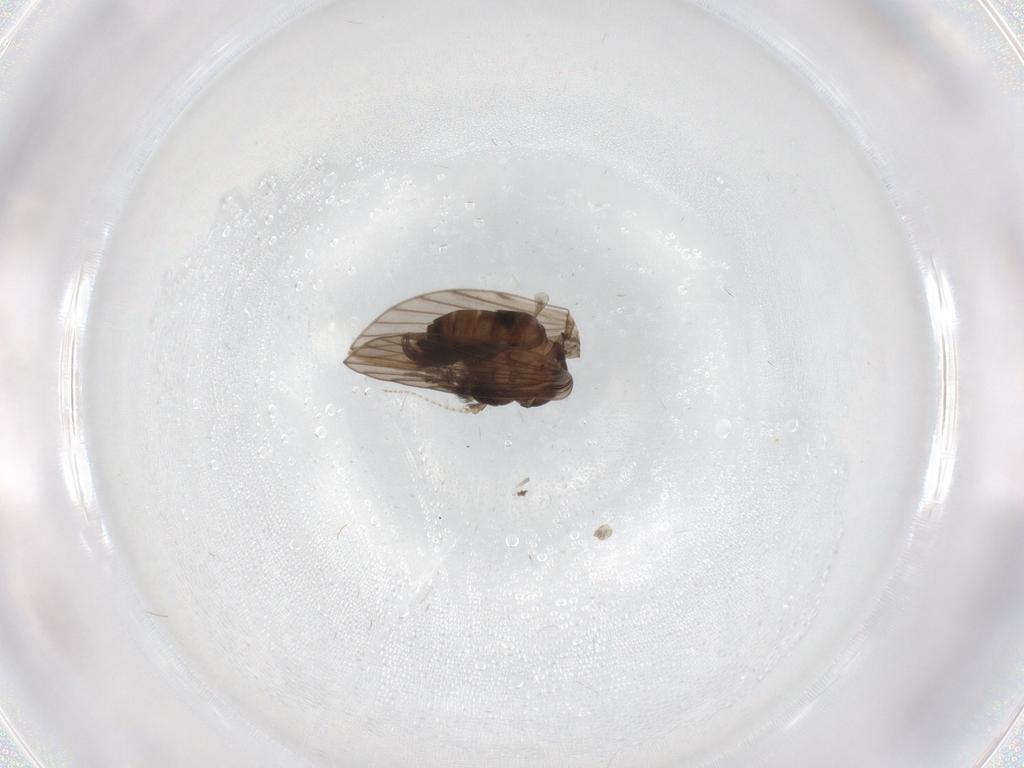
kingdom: Animalia
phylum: Arthropoda
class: Insecta
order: Diptera
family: Psychodidae
